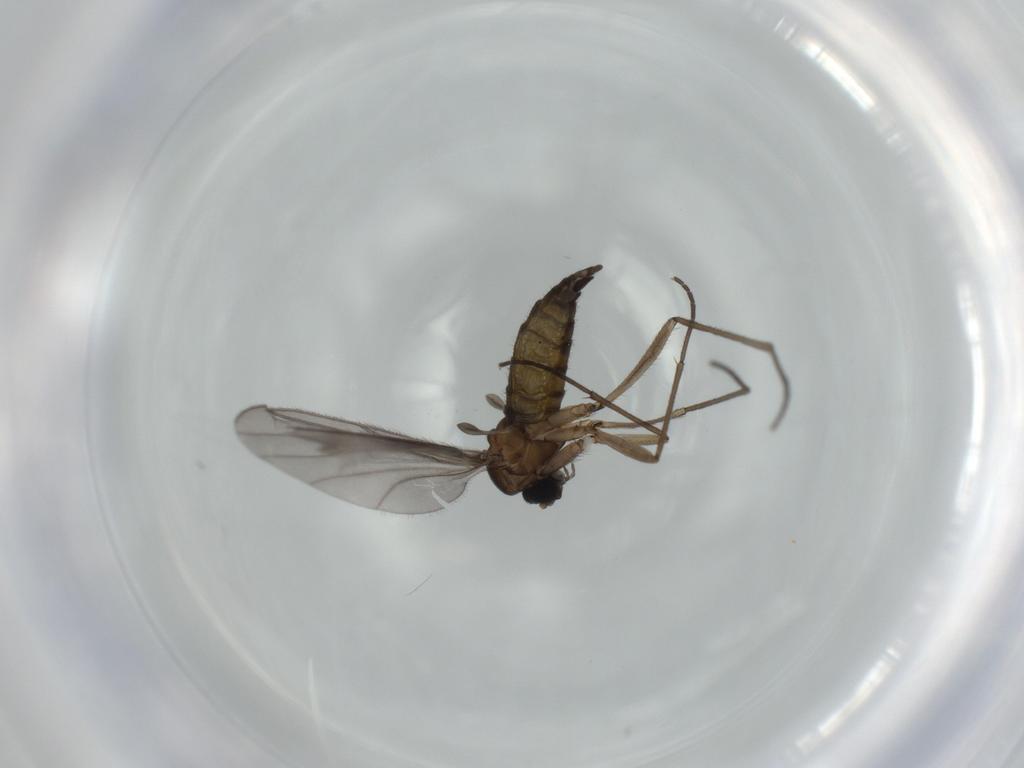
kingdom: Animalia
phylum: Arthropoda
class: Insecta
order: Diptera
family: Sciaridae
